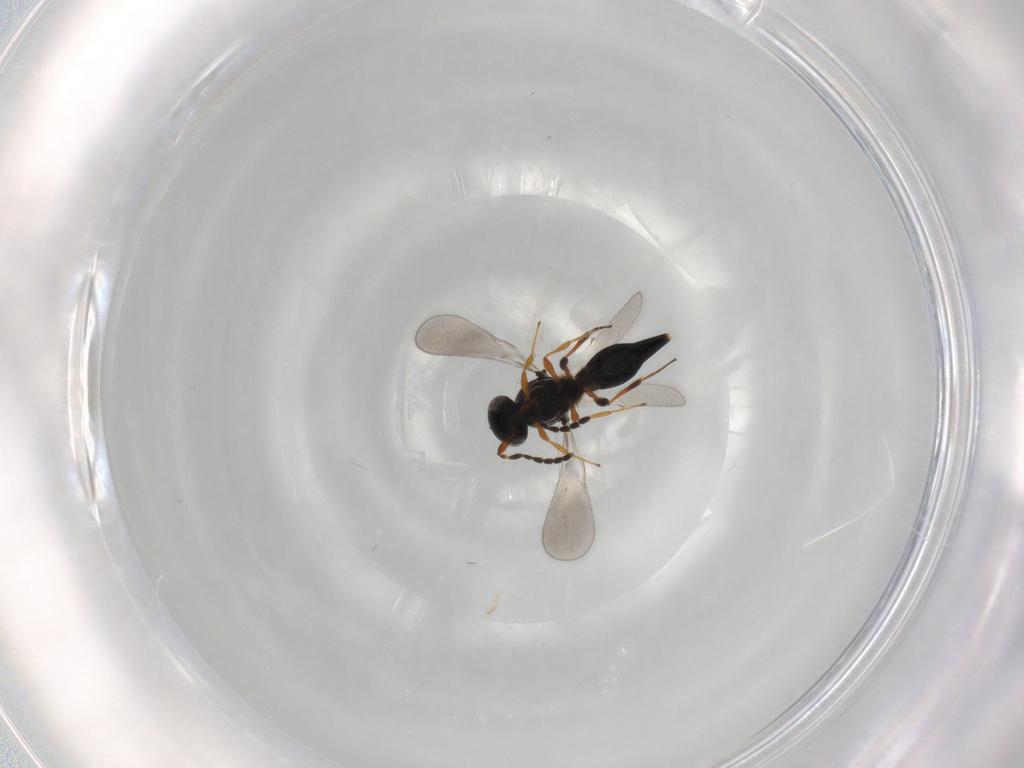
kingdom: Animalia
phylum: Arthropoda
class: Insecta
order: Hymenoptera
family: Platygastridae
